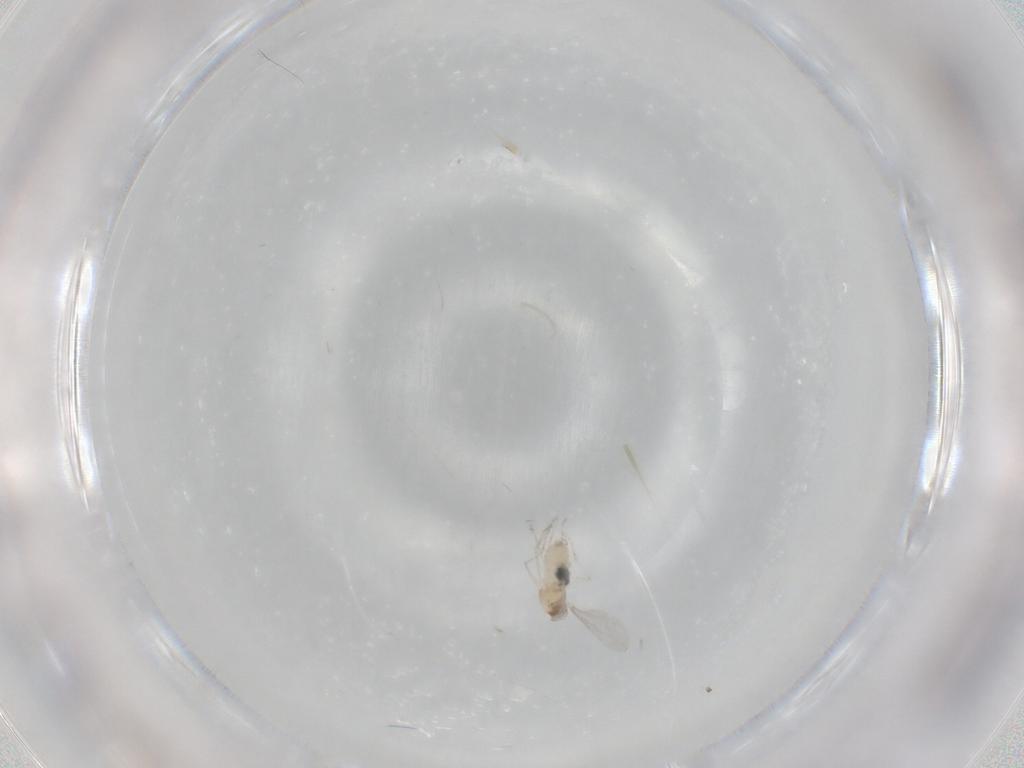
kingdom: Animalia
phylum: Arthropoda
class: Insecta
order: Diptera
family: Cecidomyiidae
